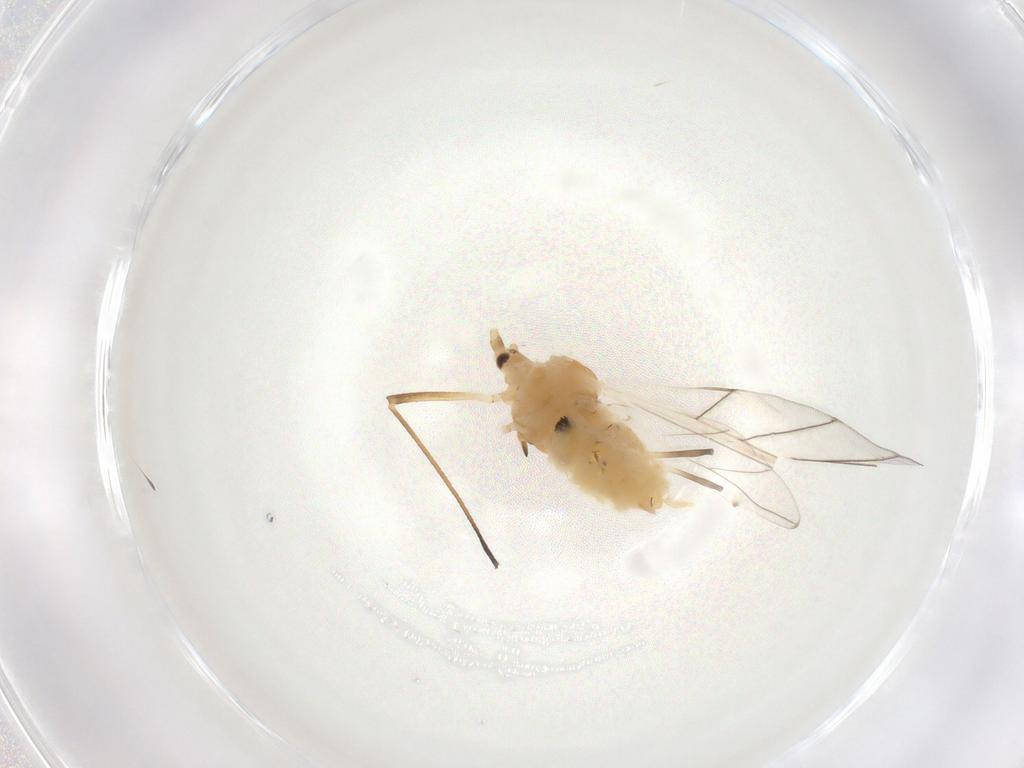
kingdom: Animalia
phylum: Arthropoda
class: Insecta
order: Hemiptera
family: Aphididae
